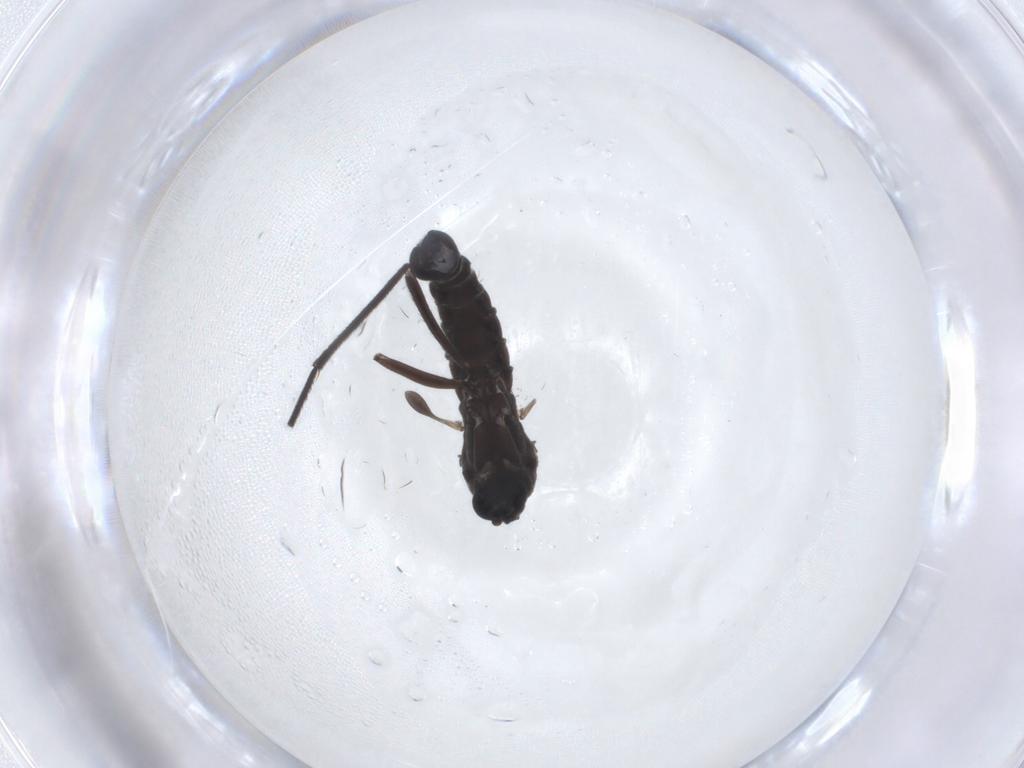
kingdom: Animalia
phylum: Arthropoda
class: Insecta
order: Diptera
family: Sciaridae
